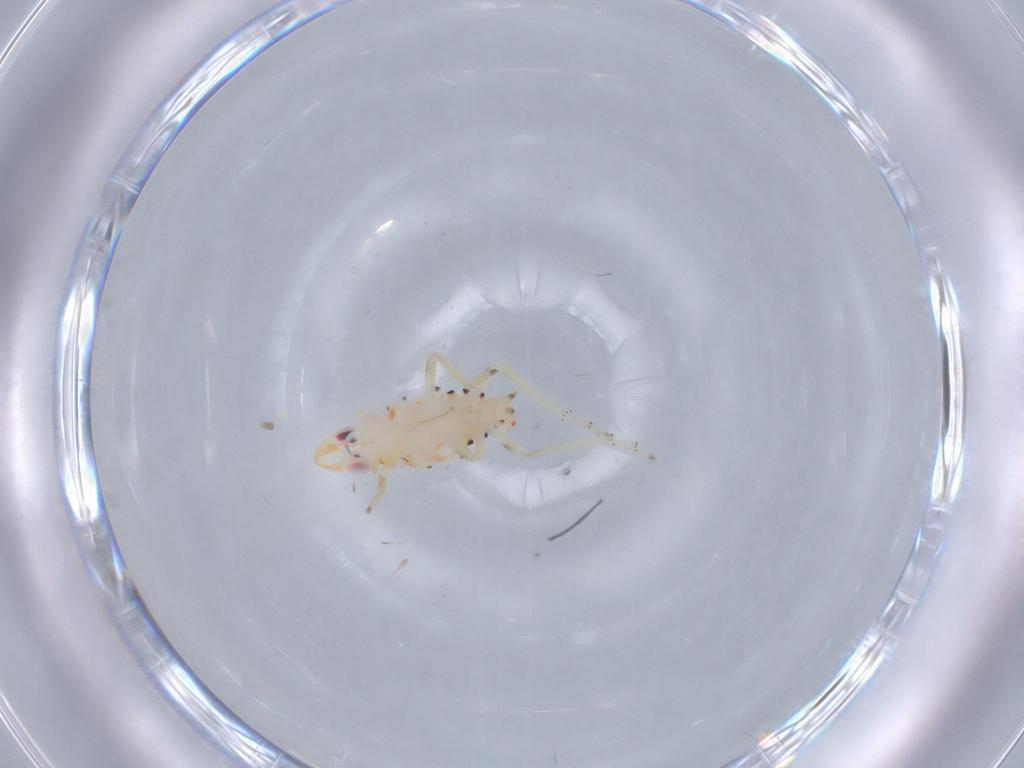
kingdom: Animalia
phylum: Arthropoda
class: Insecta
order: Hemiptera
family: Tropiduchidae
